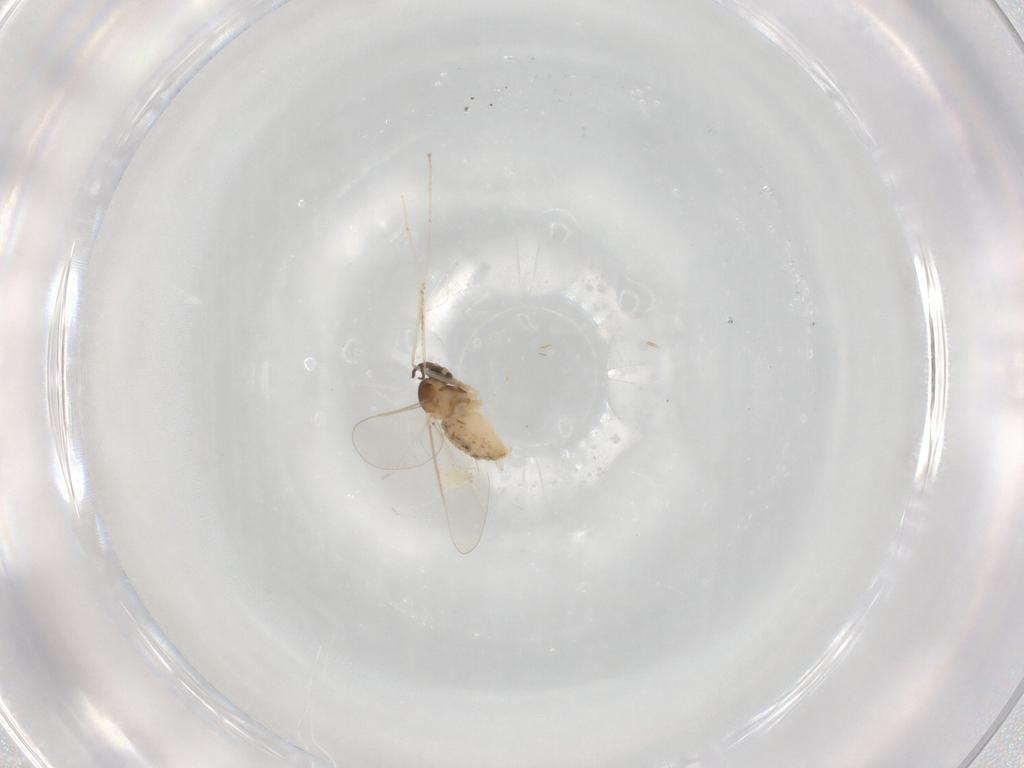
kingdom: Animalia
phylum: Arthropoda
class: Insecta
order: Diptera
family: Cecidomyiidae
